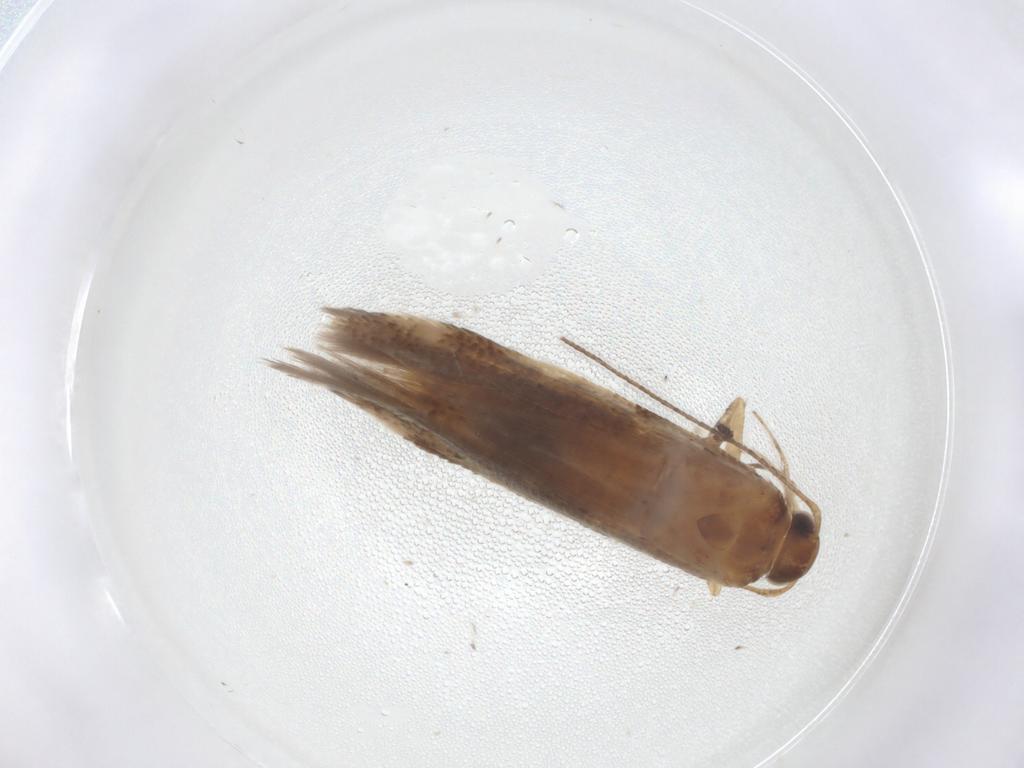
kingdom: Animalia
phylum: Arthropoda
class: Insecta
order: Lepidoptera
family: Gelechiidae
